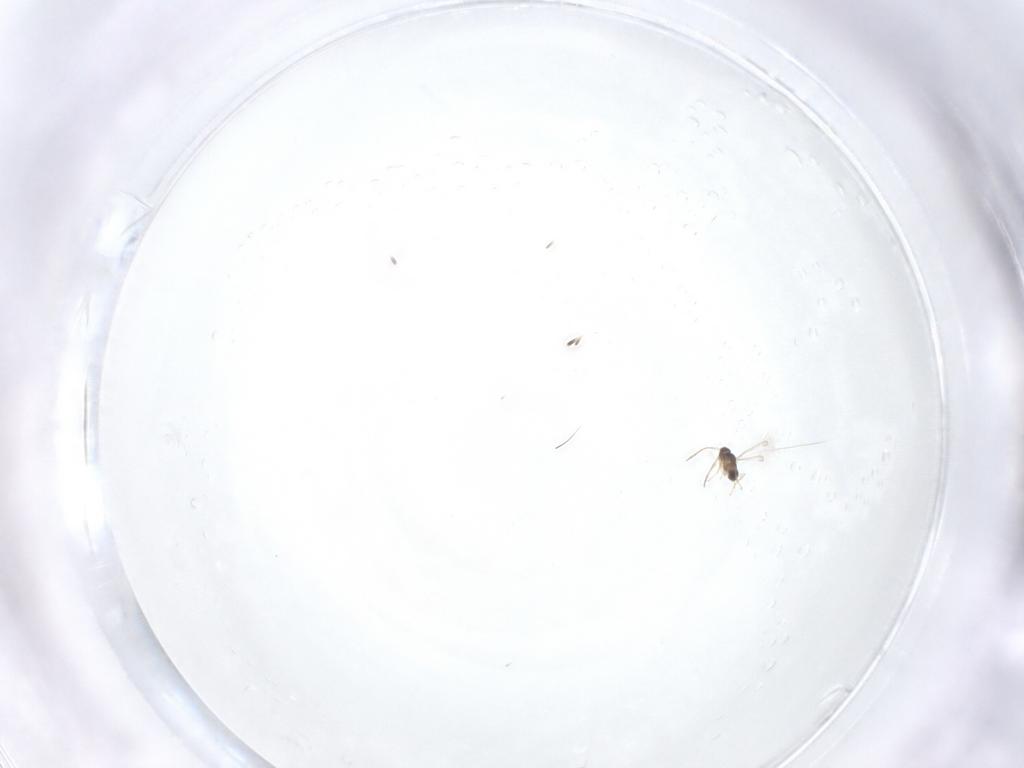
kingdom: Animalia
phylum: Arthropoda
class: Insecta
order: Hymenoptera
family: Mymaridae
